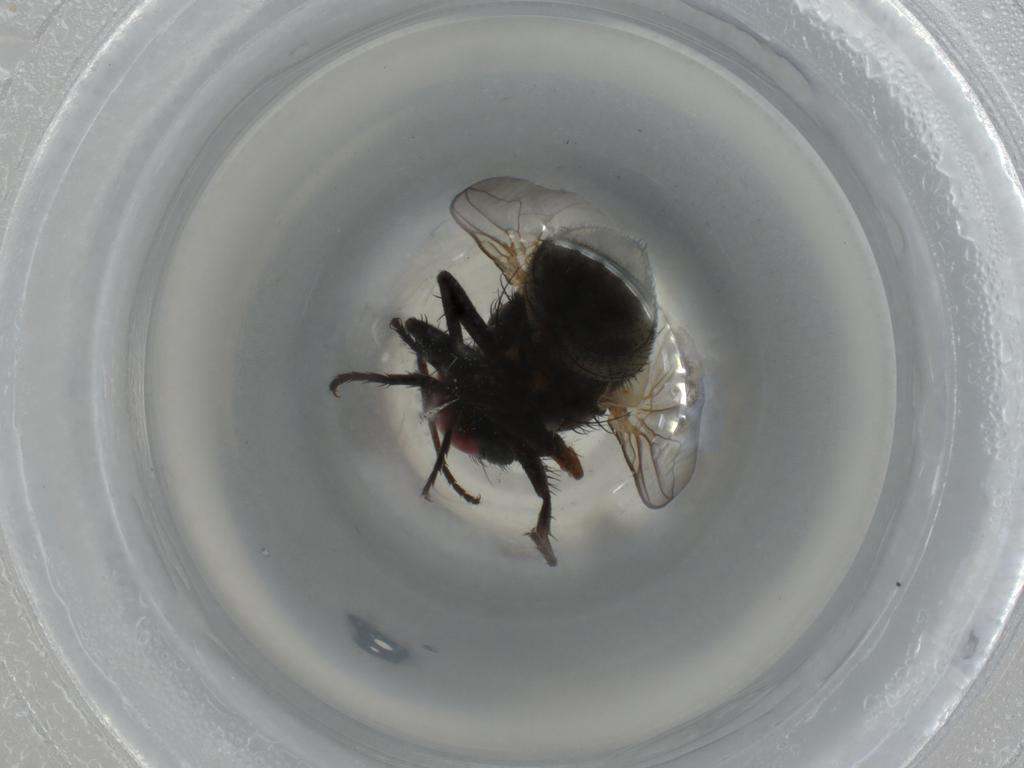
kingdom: Animalia
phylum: Arthropoda
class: Insecta
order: Diptera
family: Sarcophagidae
